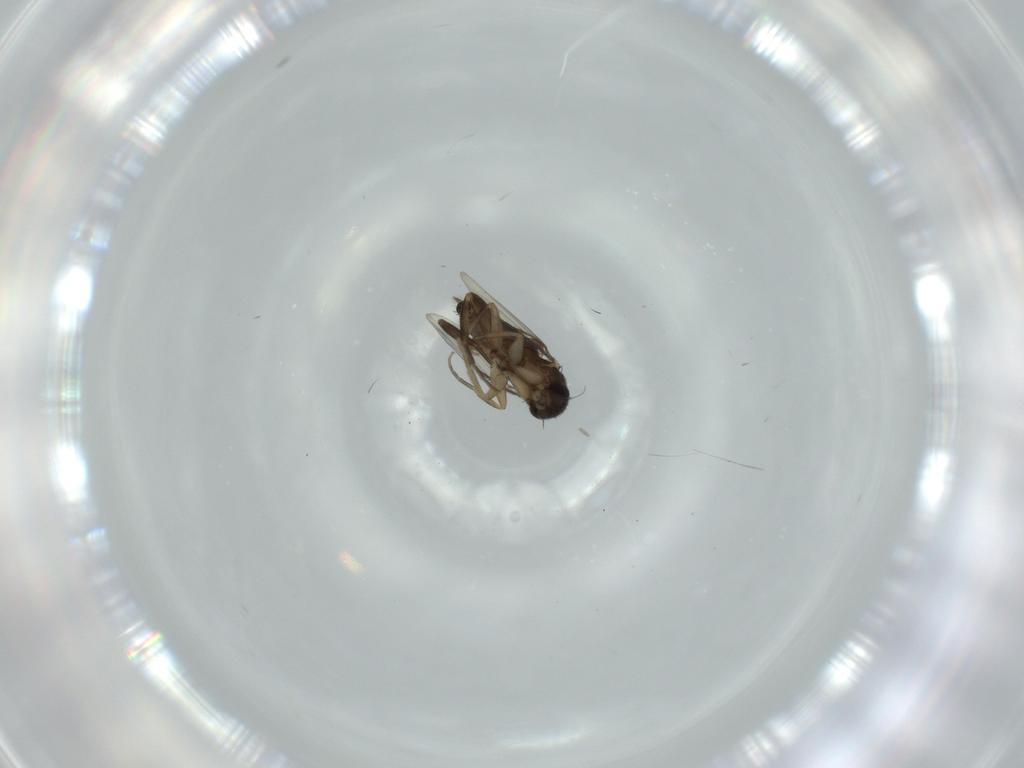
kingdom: Animalia
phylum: Arthropoda
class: Insecta
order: Diptera
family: Phoridae
